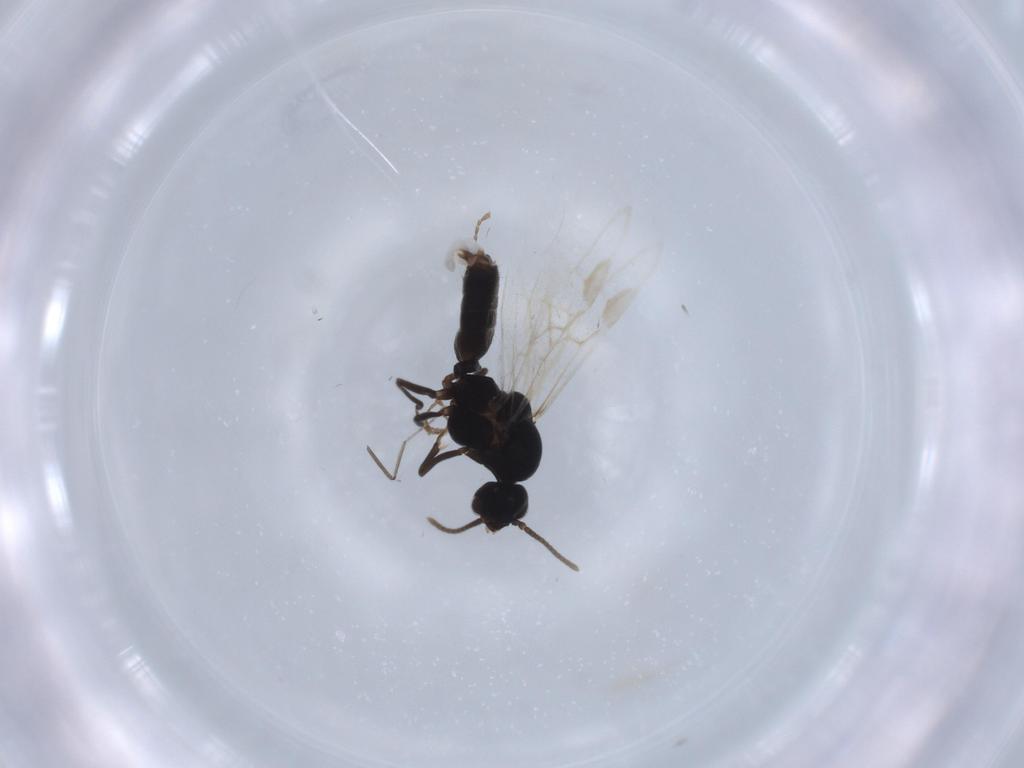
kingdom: Animalia
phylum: Arthropoda
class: Insecta
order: Hymenoptera
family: Formicidae
